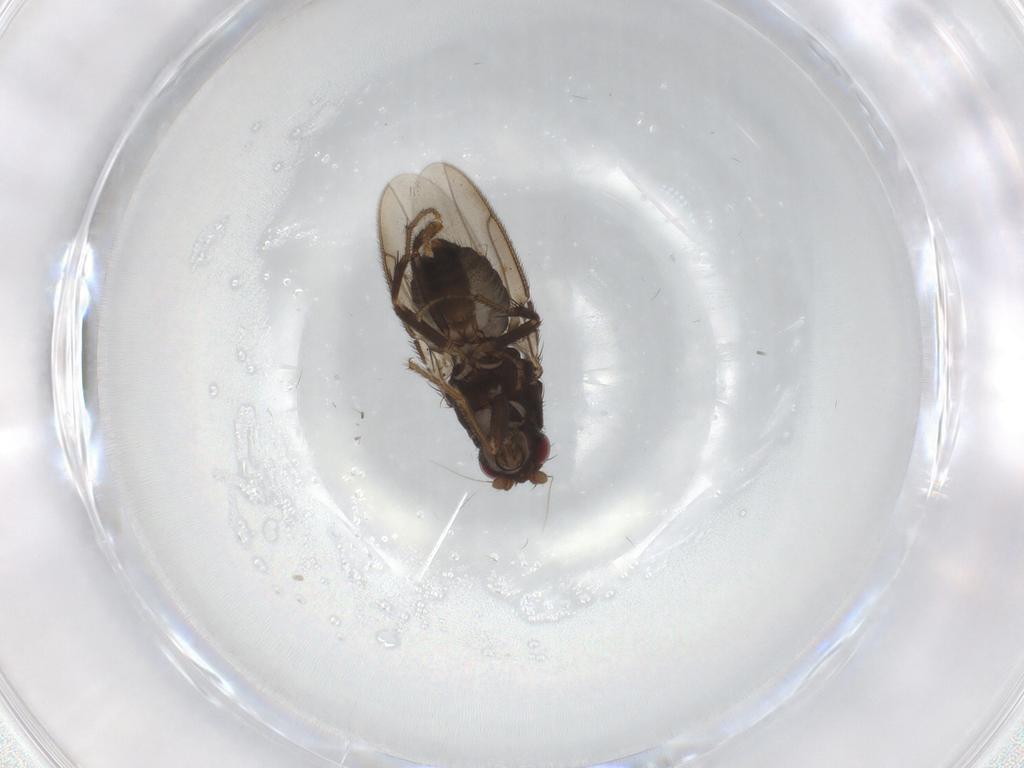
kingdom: Animalia
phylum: Arthropoda
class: Insecta
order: Diptera
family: Sphaeroceridae
